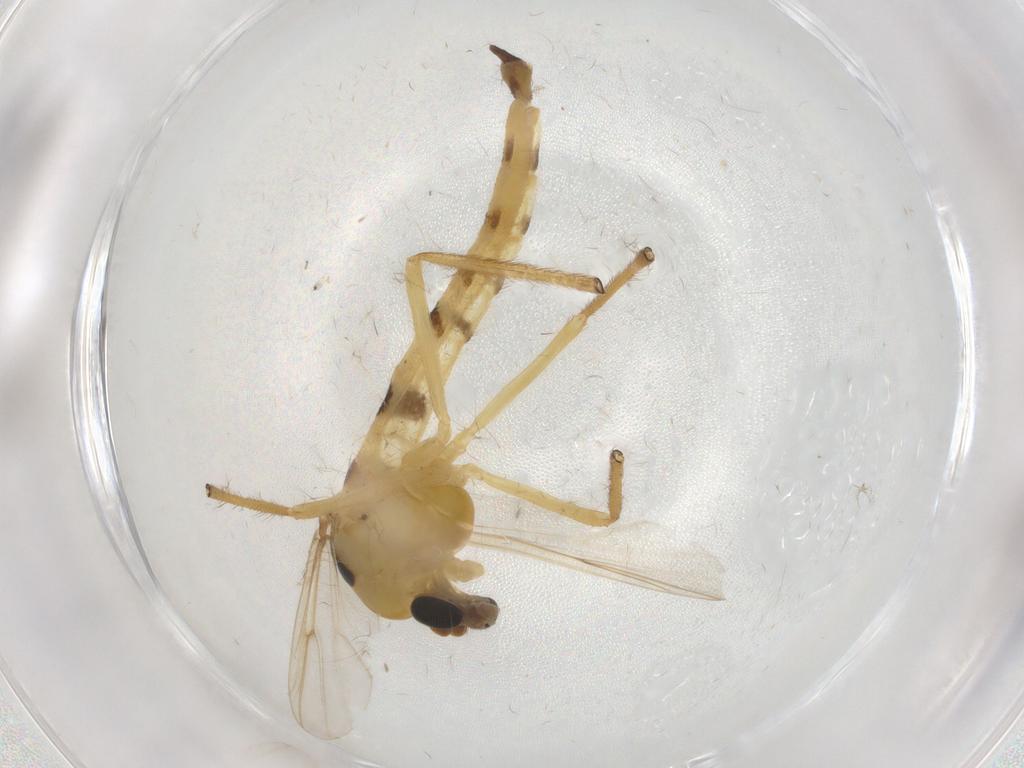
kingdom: Animalia
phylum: Arthropoda
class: Insecta
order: Diptera
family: Chironomidae
